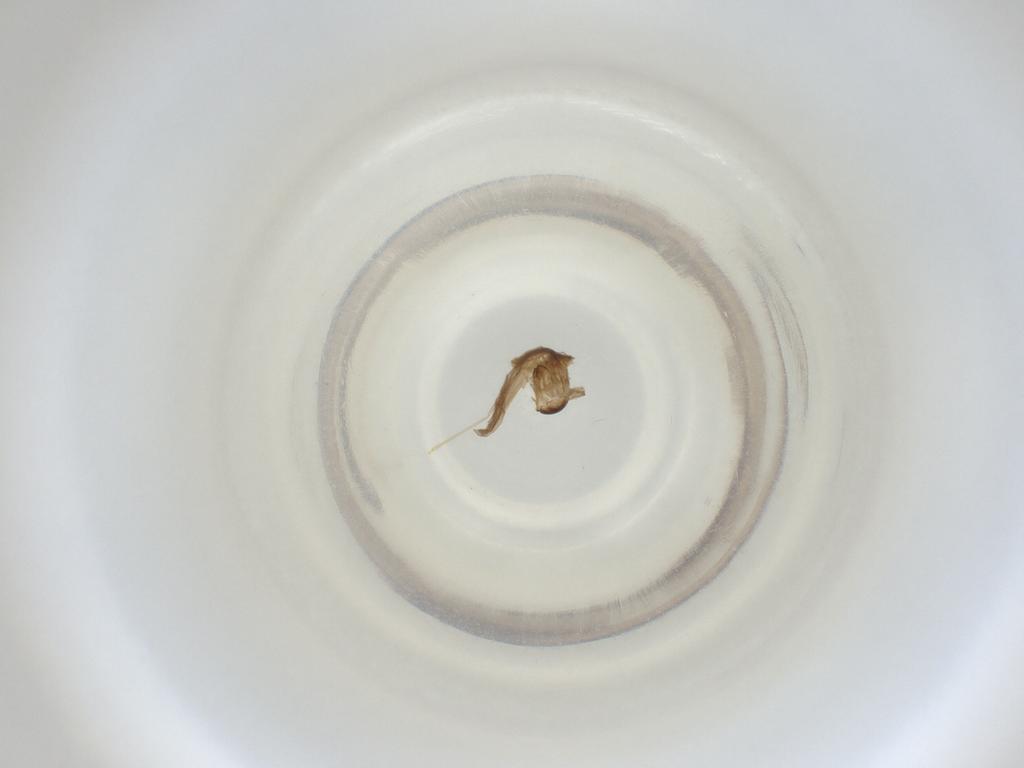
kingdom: Animalia
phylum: Arthropoda
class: Insecta
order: Diptera
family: Cecidomyiidae
